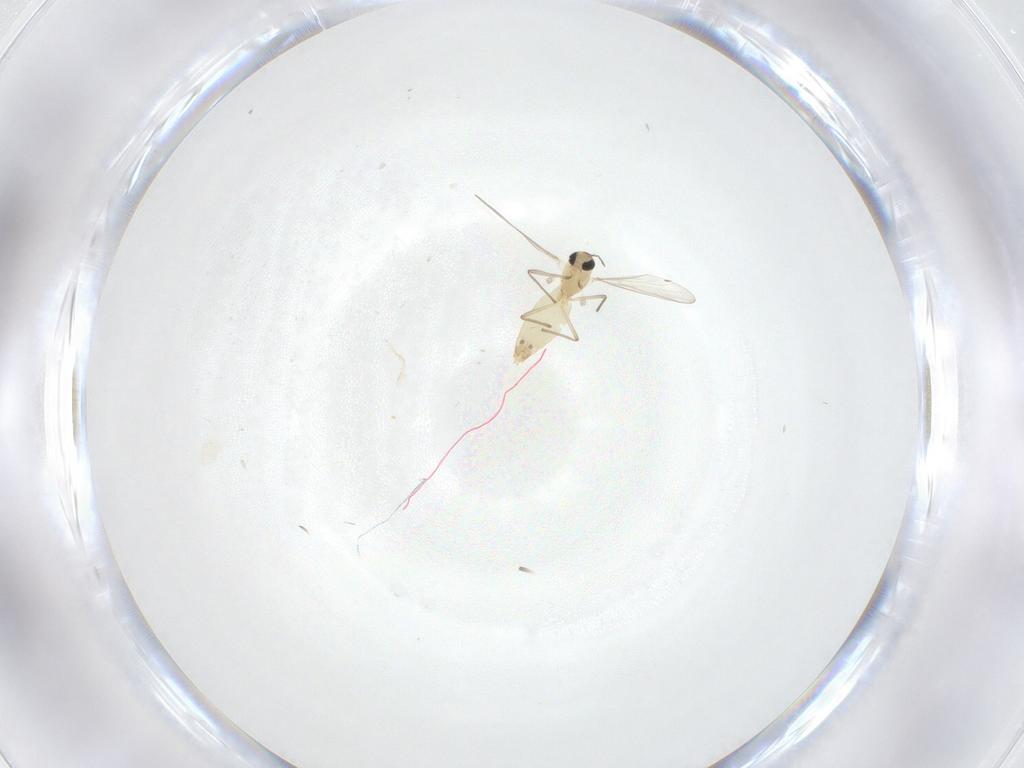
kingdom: Animalia
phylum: Arthropoda
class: Insecta
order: Diptera
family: Chironomidae
